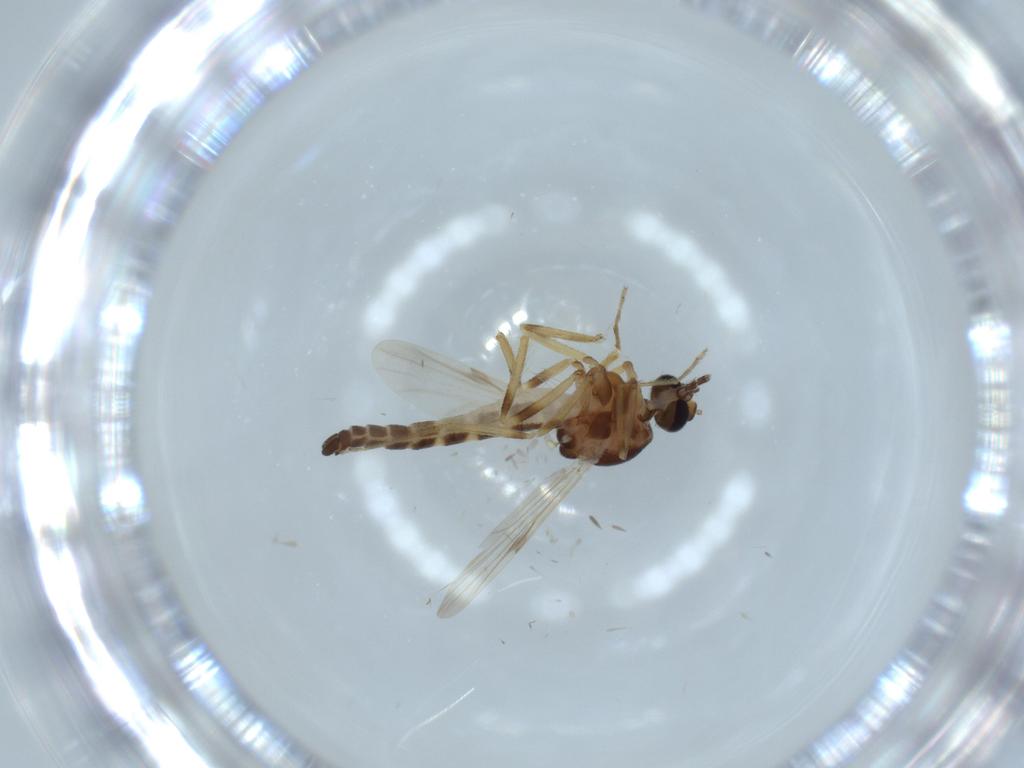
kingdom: Animalia
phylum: Arthropoda
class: Insecta
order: Diptera
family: Ceratopogonidae
